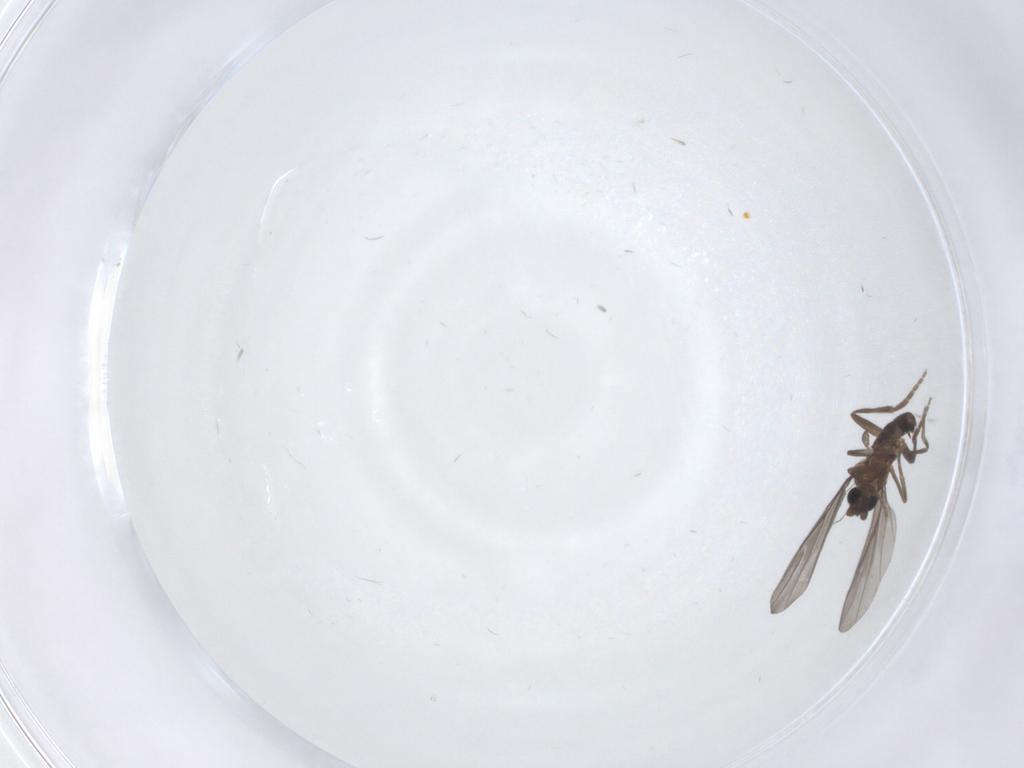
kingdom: Animalia
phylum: Arthropoda
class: Insecta
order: Diptera
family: Phoridae
